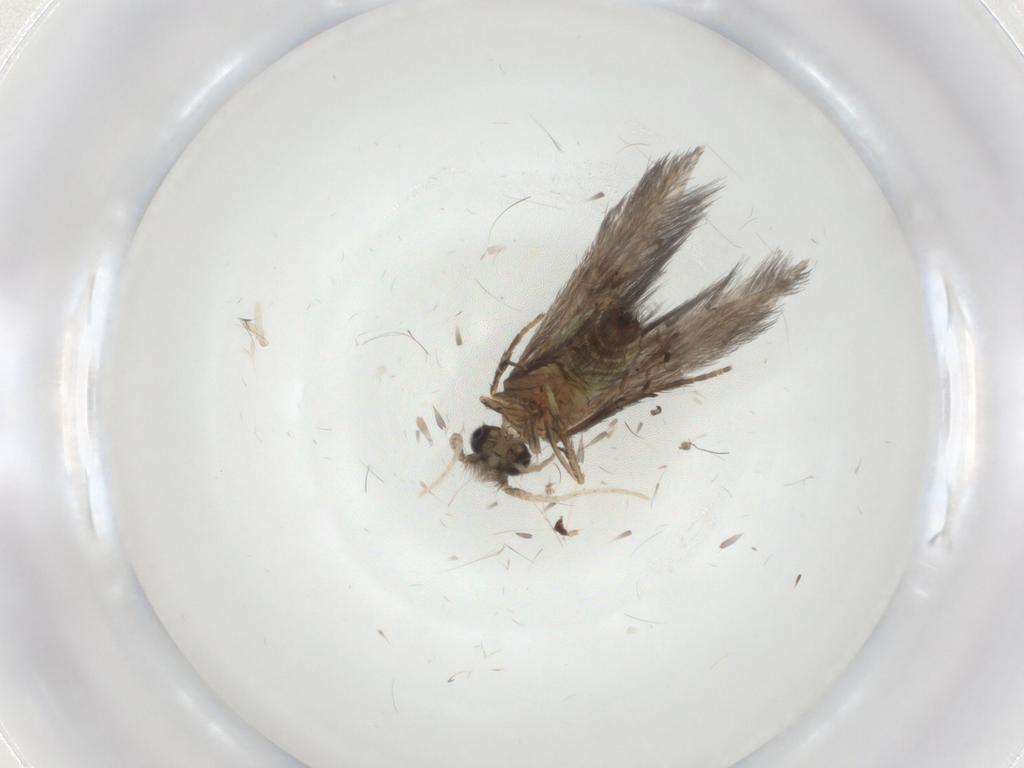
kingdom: Animalia
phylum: Arthropoda
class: Insecta
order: Trichoptera
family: Hydroptilidae
